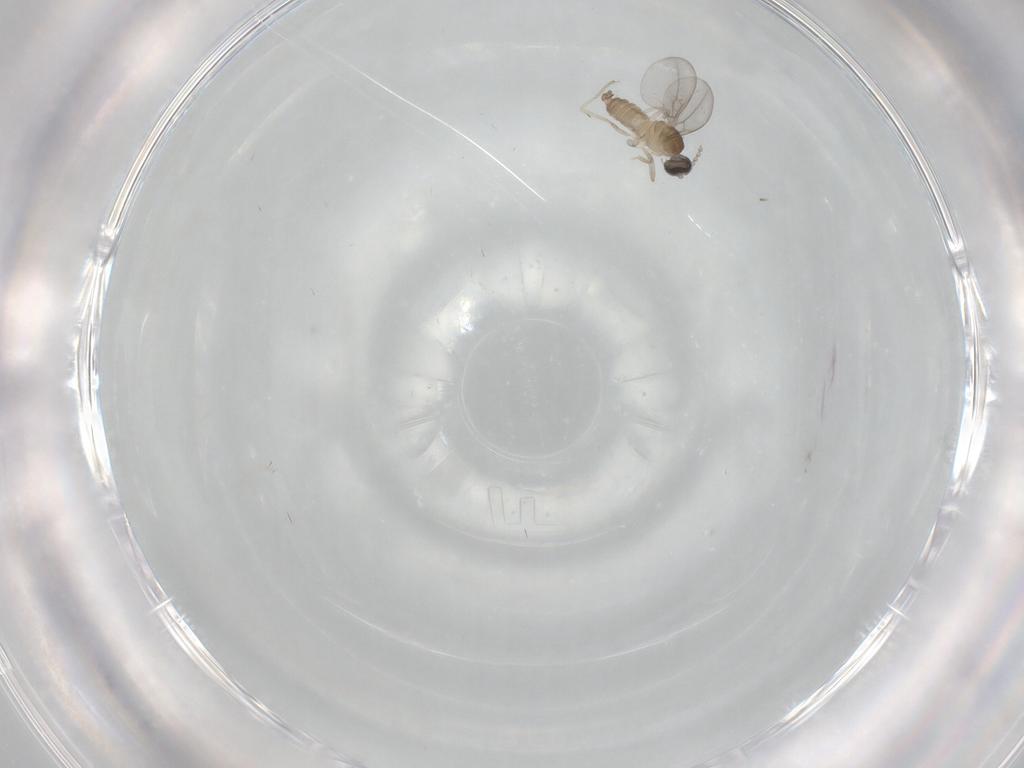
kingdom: Animalia
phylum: Arthropoda
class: Insecta
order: Diptera
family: Cecidomyiidae
